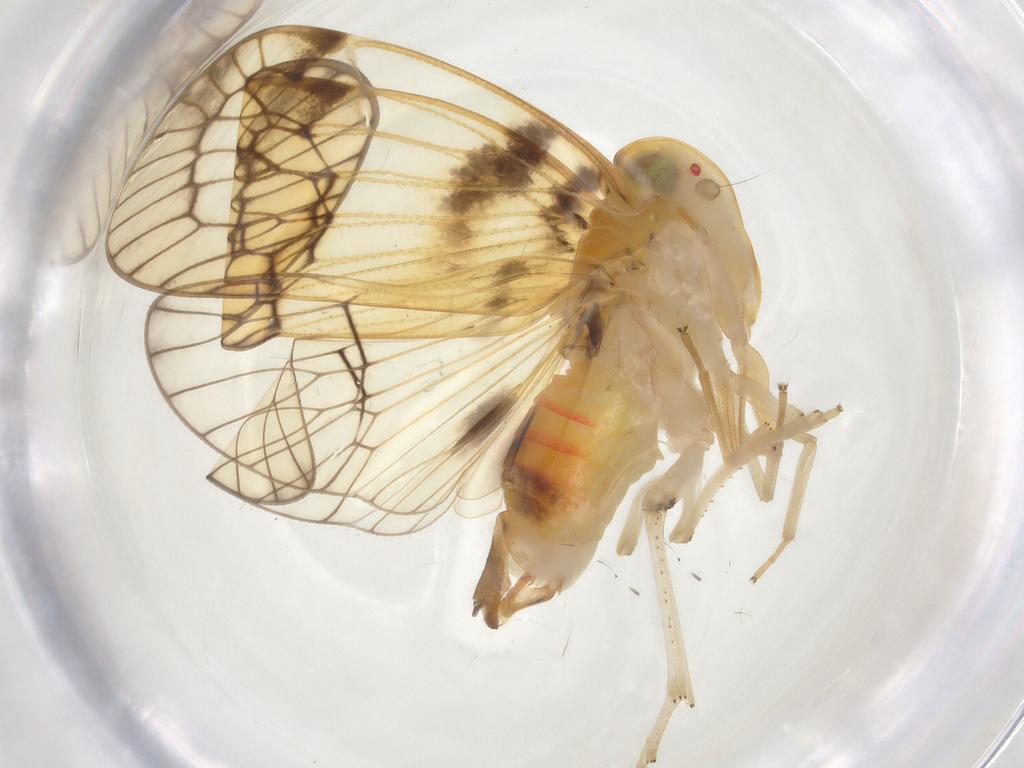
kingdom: Animalia
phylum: Arthropoda
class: Insecta
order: Hemiptera
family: Cixiidae
